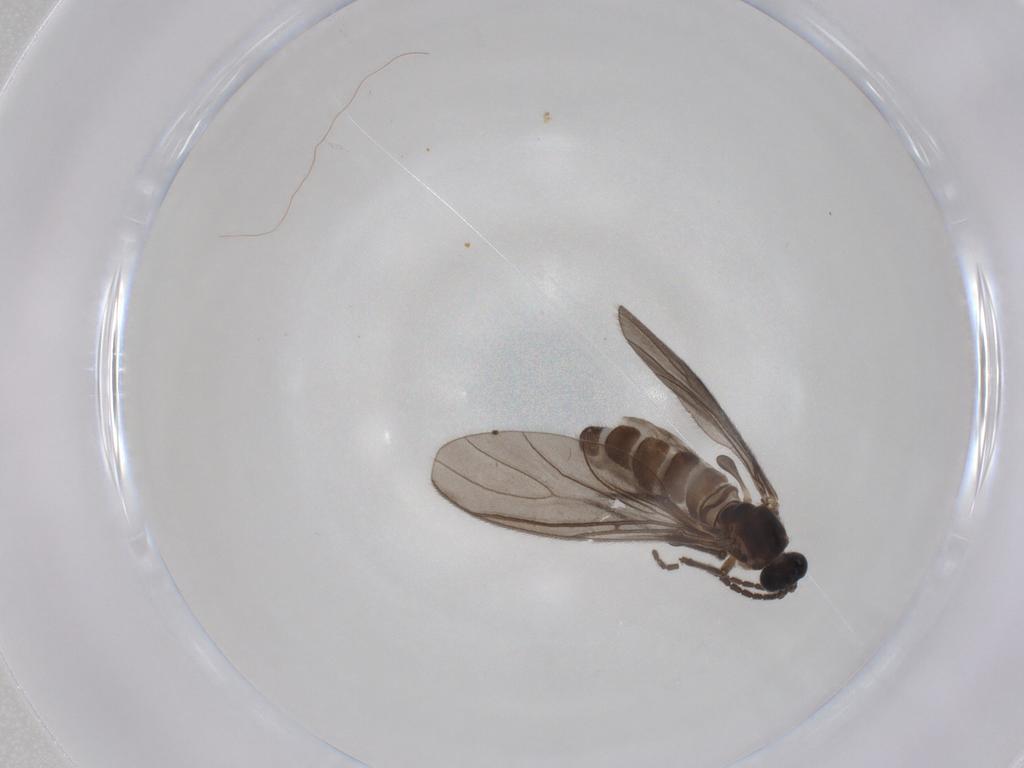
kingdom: Animalia
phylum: Arthropoda
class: Insecta
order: Diptera
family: Sciaridae
